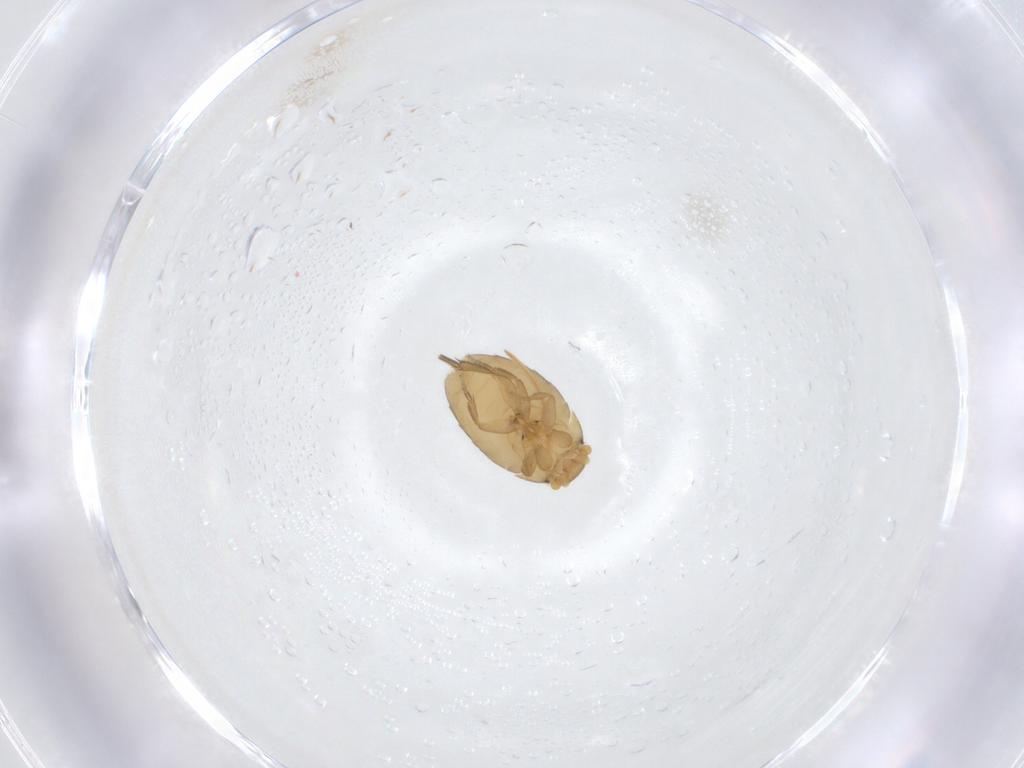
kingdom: Animalia
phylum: Arthropoda
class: Insecta
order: Diptera
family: Phoridae
